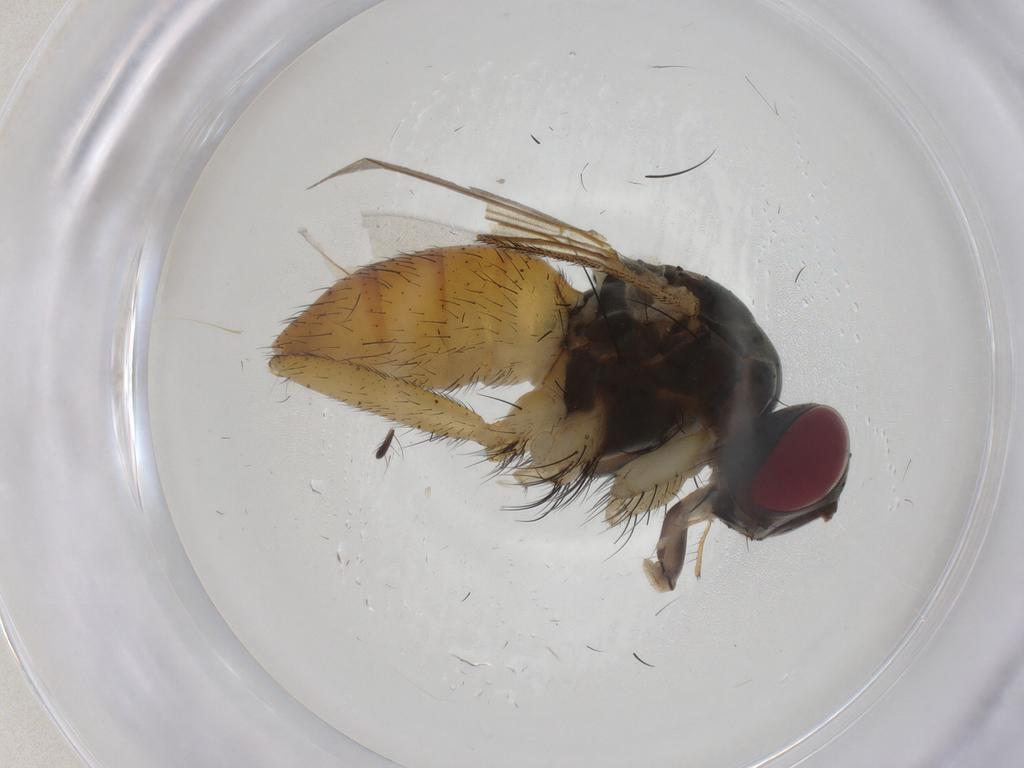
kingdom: Animalia
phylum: Arthropoda
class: Insecta
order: Diptera
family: Muscidae
